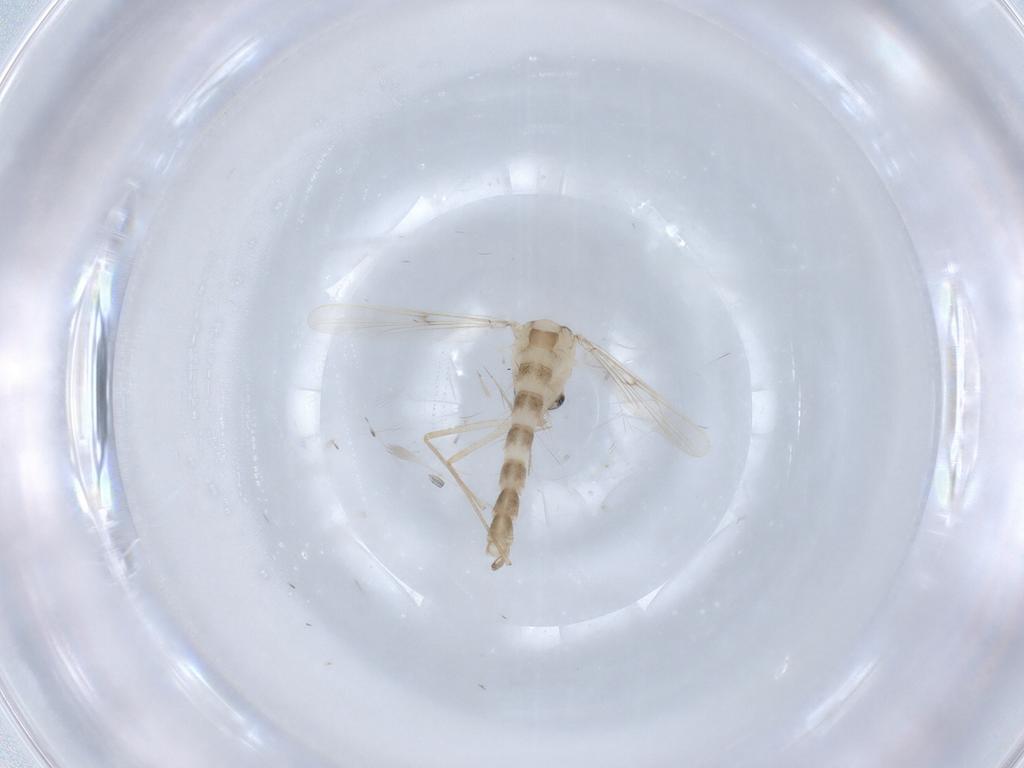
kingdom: Animalia
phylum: Arthropoda
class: Insecta
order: Diptera
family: Chironomidae
